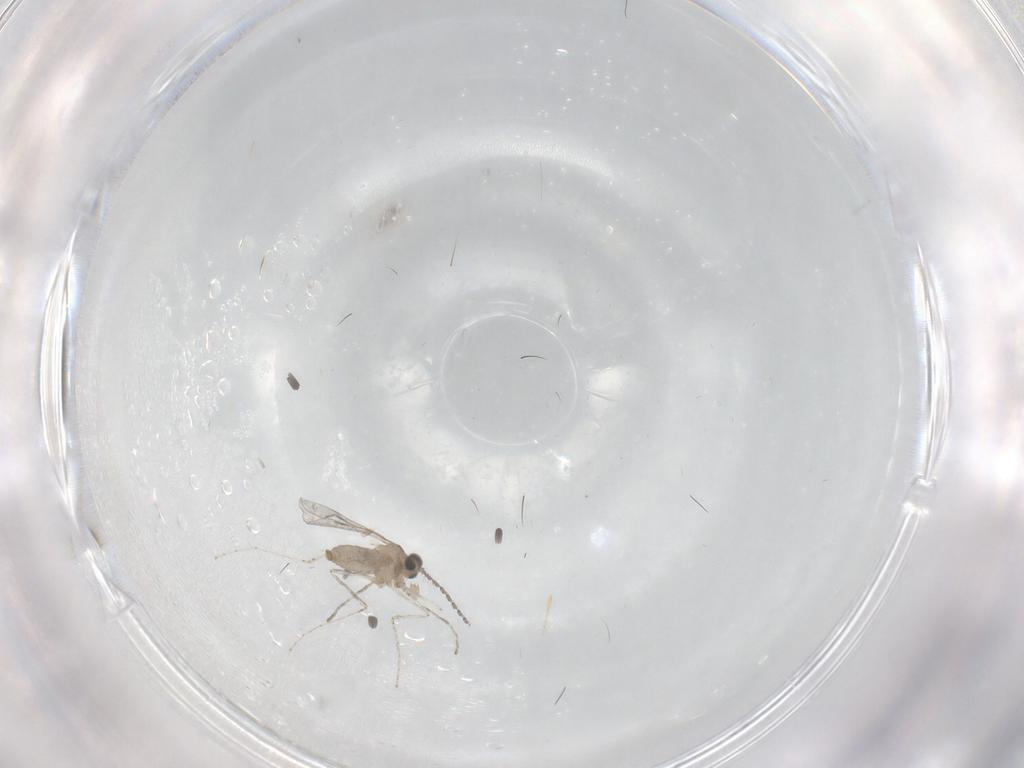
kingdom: Animalia
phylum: Arthropoda
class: Insecta
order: Diptera
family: Cecidomyiidae
